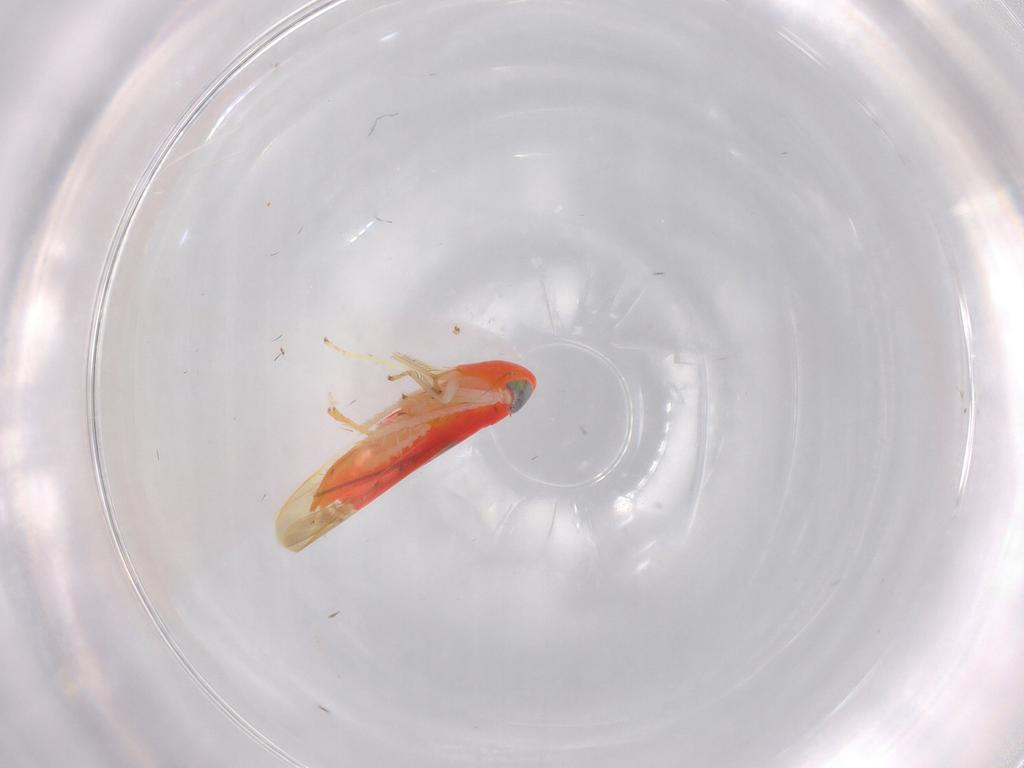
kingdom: Animalia
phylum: Arthropoda
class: Insecta
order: Hemiptera
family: Cicadellidae
